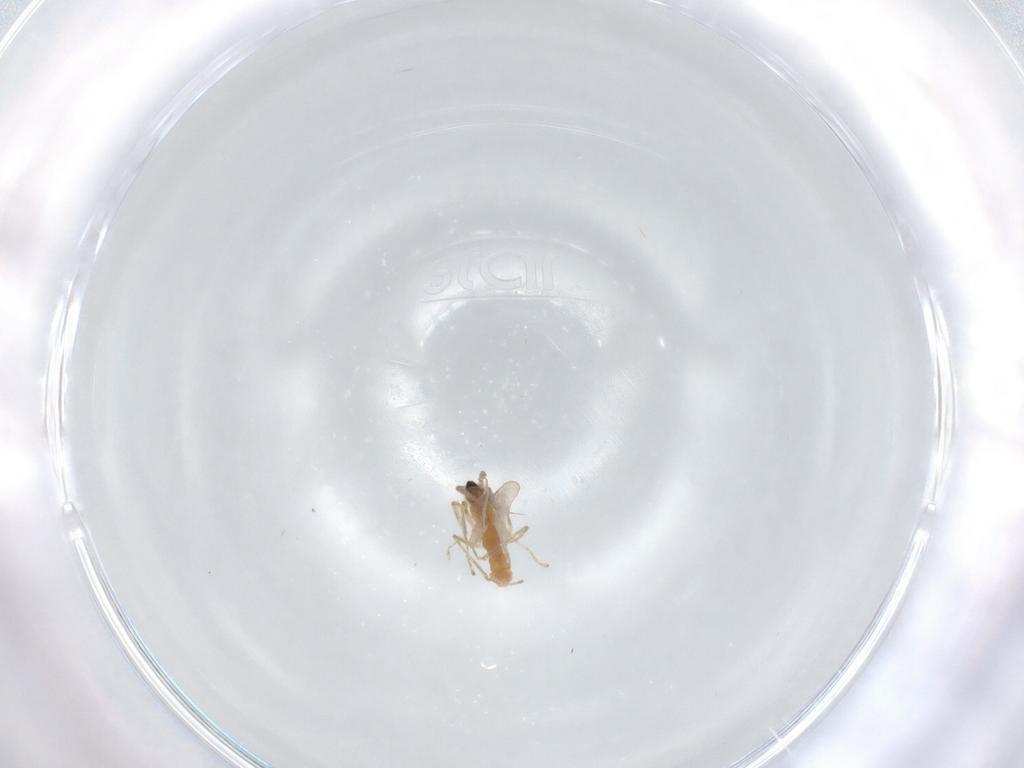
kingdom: Animalia
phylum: Arthropoda
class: Insecta
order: Diptera
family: Cecidomyiidae
